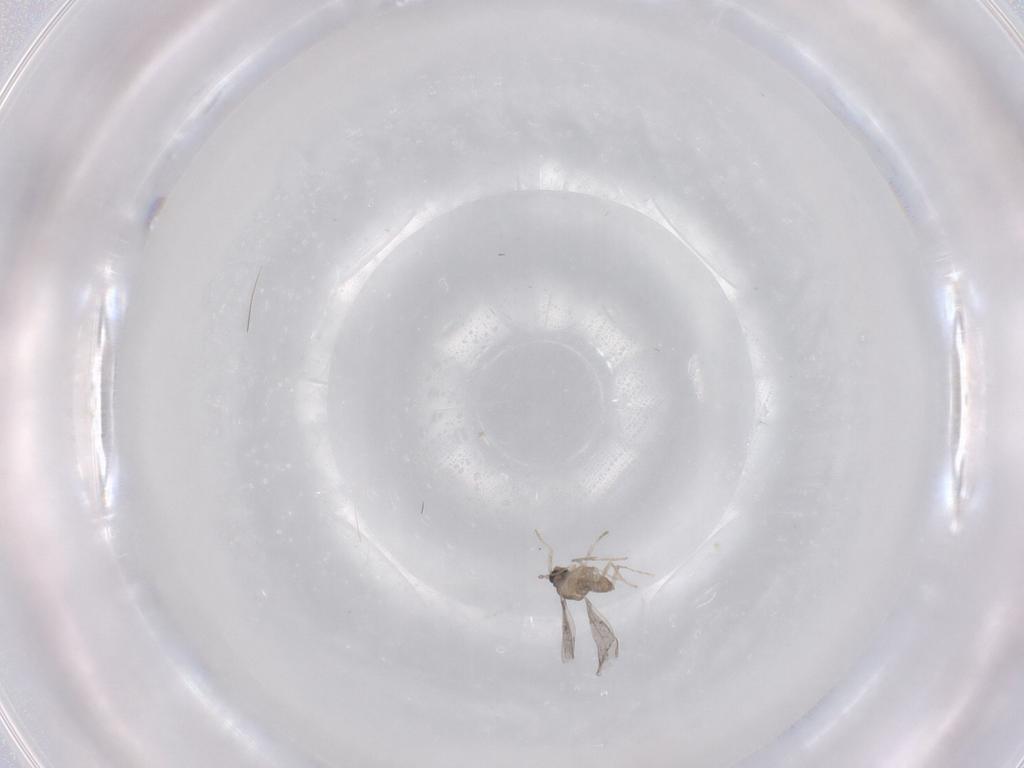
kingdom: Animalia
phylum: Arthropoda
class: Insecta
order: Diptera
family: Cecidomyiidae
